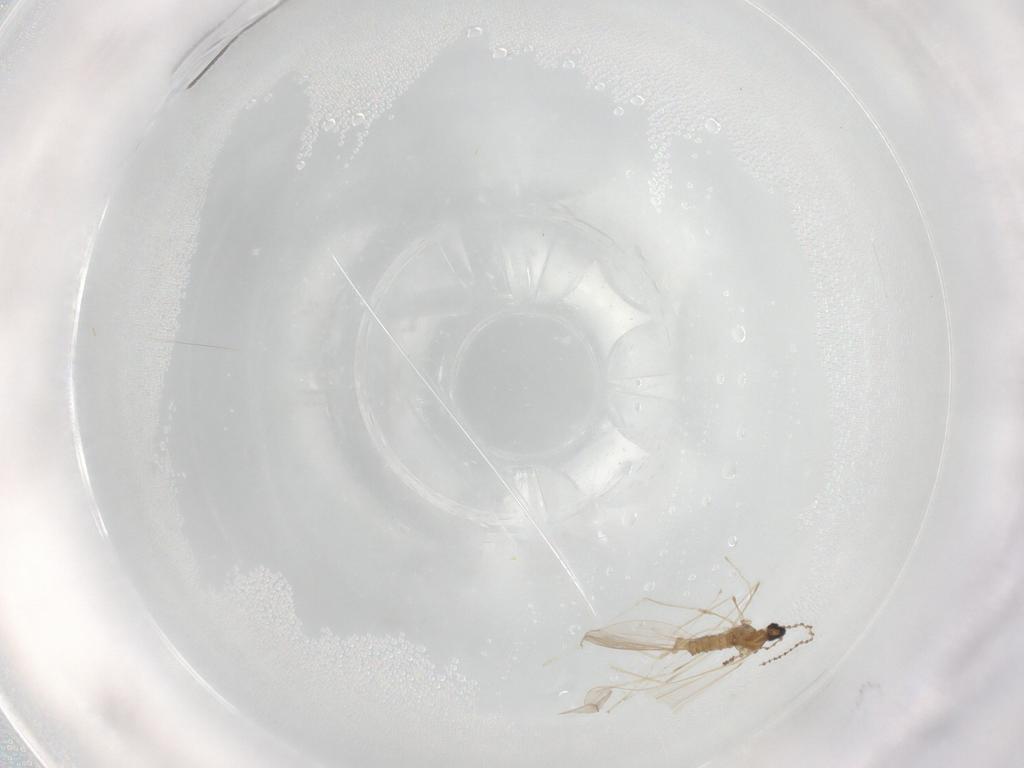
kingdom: Animalia
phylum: Arthropoda
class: Insecta
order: Diptera
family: Cecidomyiidae
